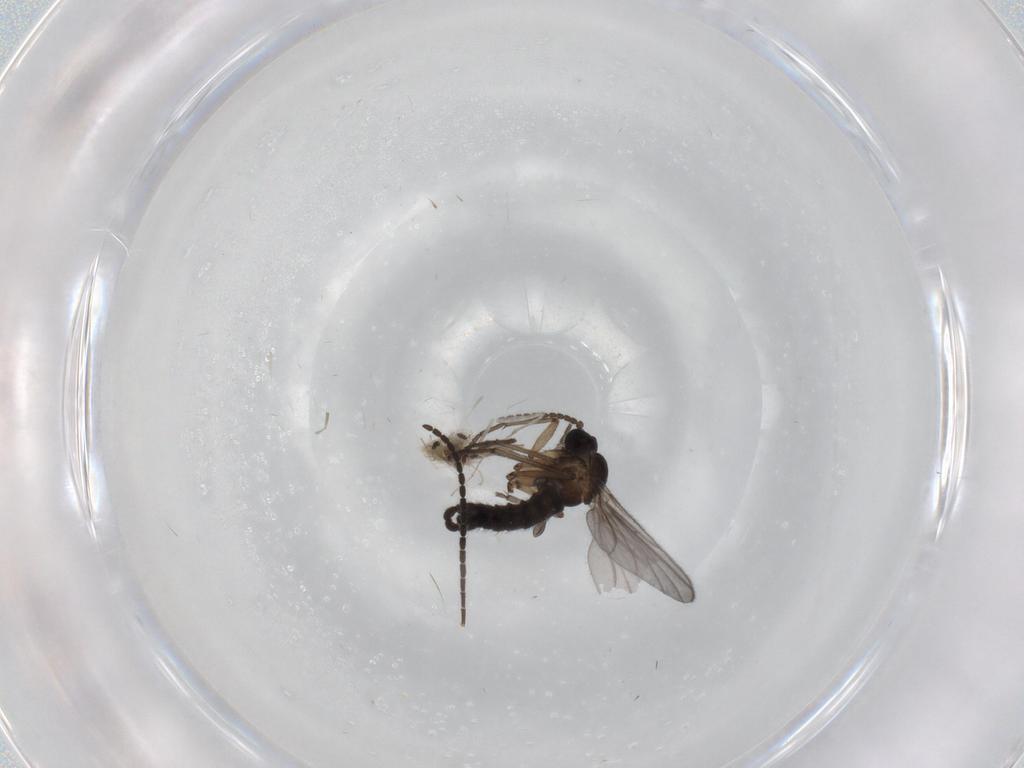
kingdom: Animalia
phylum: Arthropoda
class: Insecta
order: Diptera
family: Sciaridae
